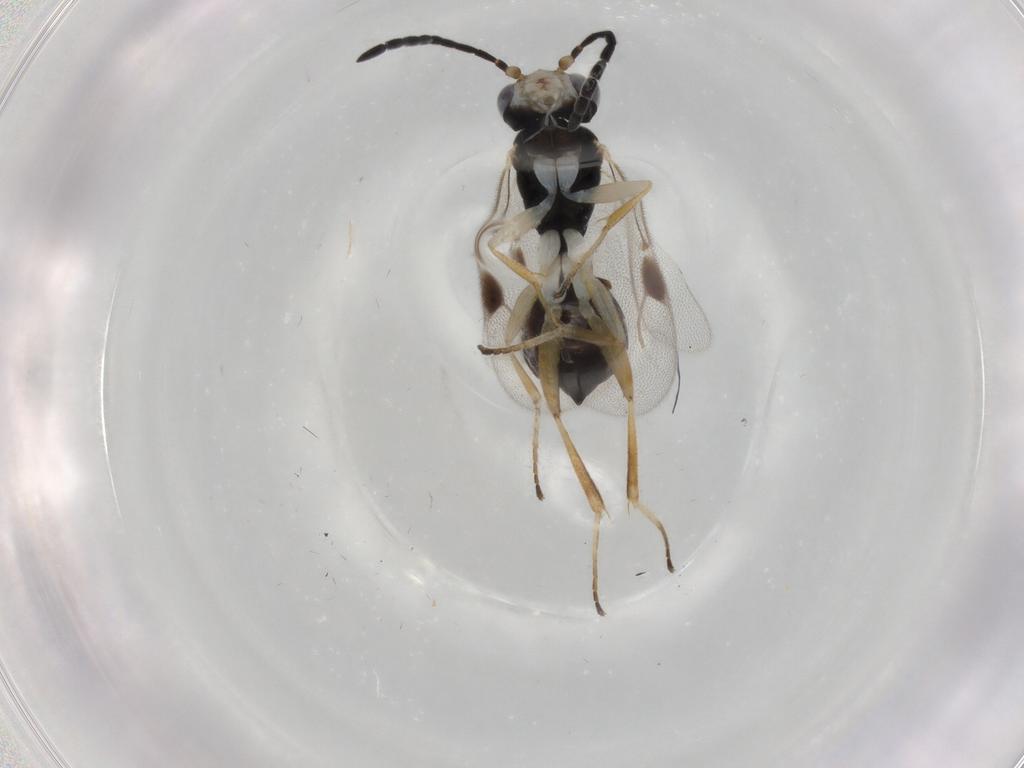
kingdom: Animalia
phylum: Arthropoda
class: Insecta
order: Hymenoptera
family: Dryinidae
